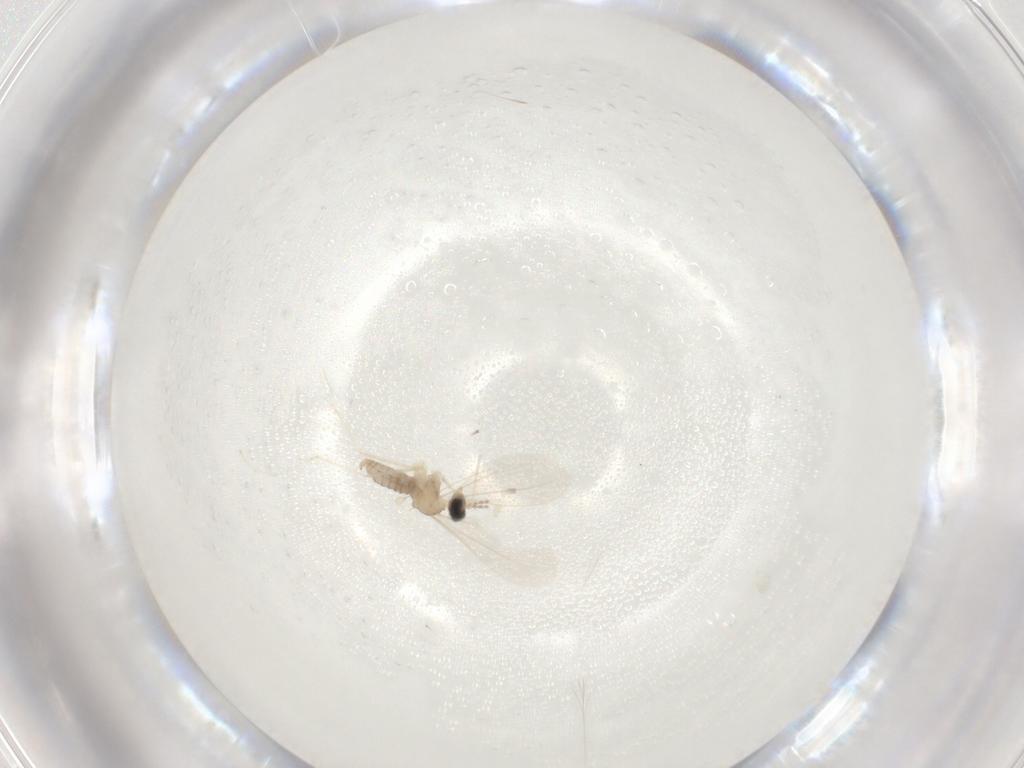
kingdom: Animalia
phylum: Arthropoda
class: Insecta
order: Diptera
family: Cecidomyiidae
